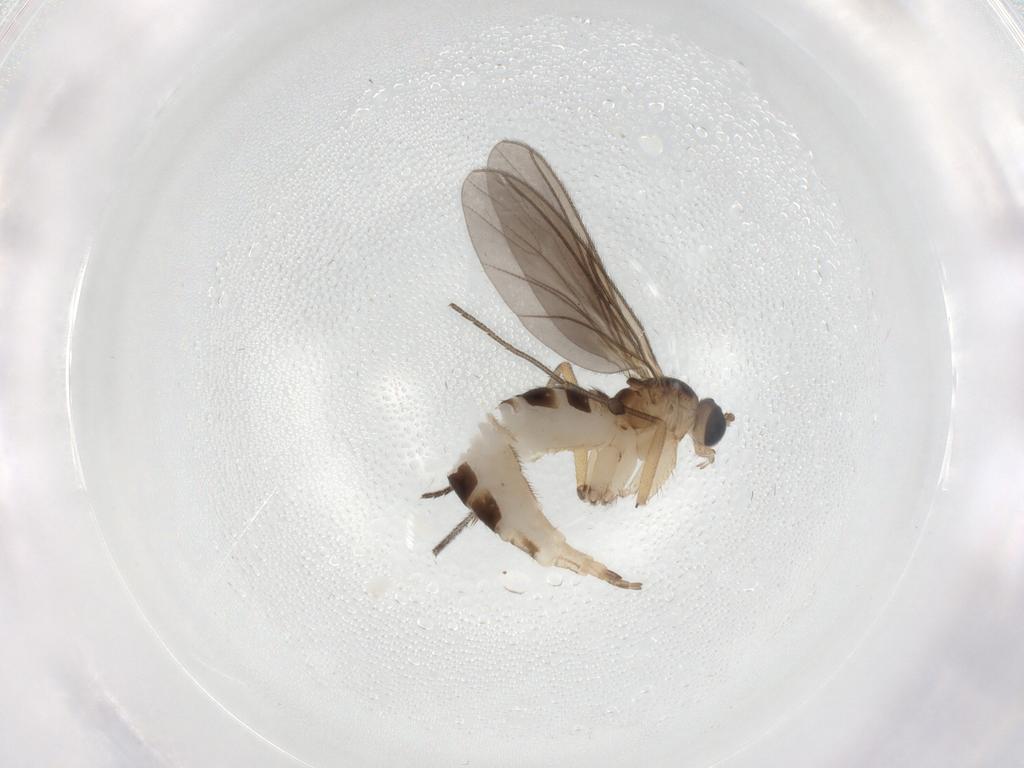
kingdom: Animalia
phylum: Arthropoda
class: Insecta
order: Diptera
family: Sciaridae
